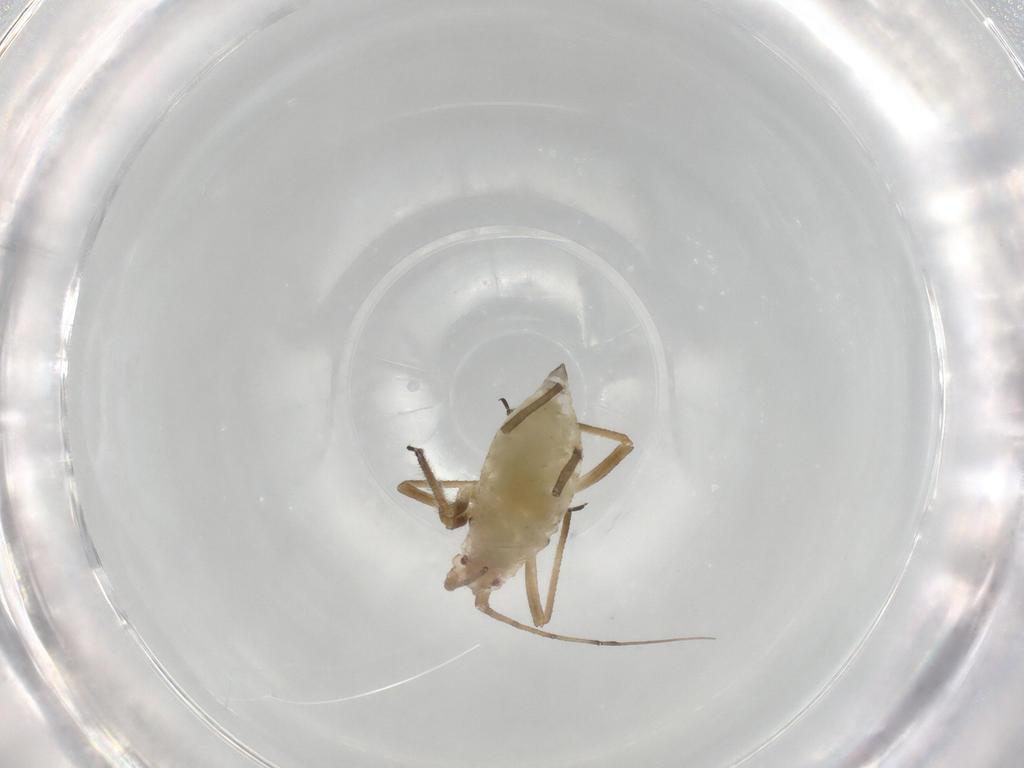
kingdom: Animalia
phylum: Arthropoda
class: Insecta
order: Hemiptera
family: Aphididae
